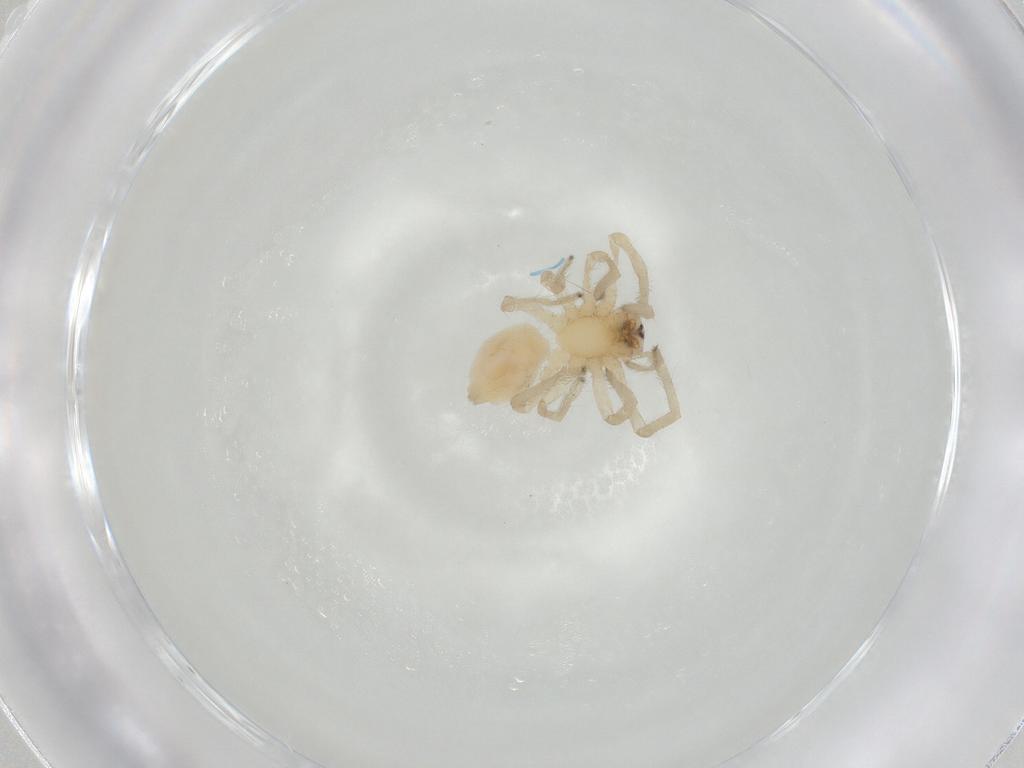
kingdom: Animalia
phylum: Arthropoda
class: Arachnida
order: Araneae
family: Cheiracanthiidae
